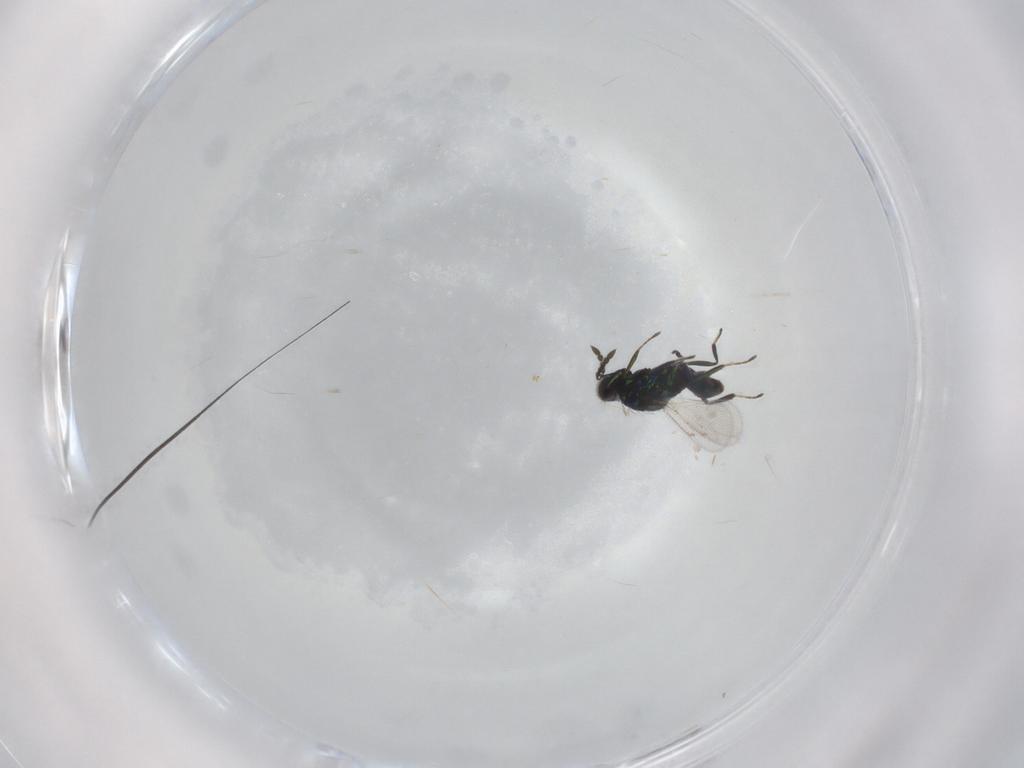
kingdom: Animalia
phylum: Arthropoda
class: Insecta
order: Hymenoptera
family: Eulophidae
